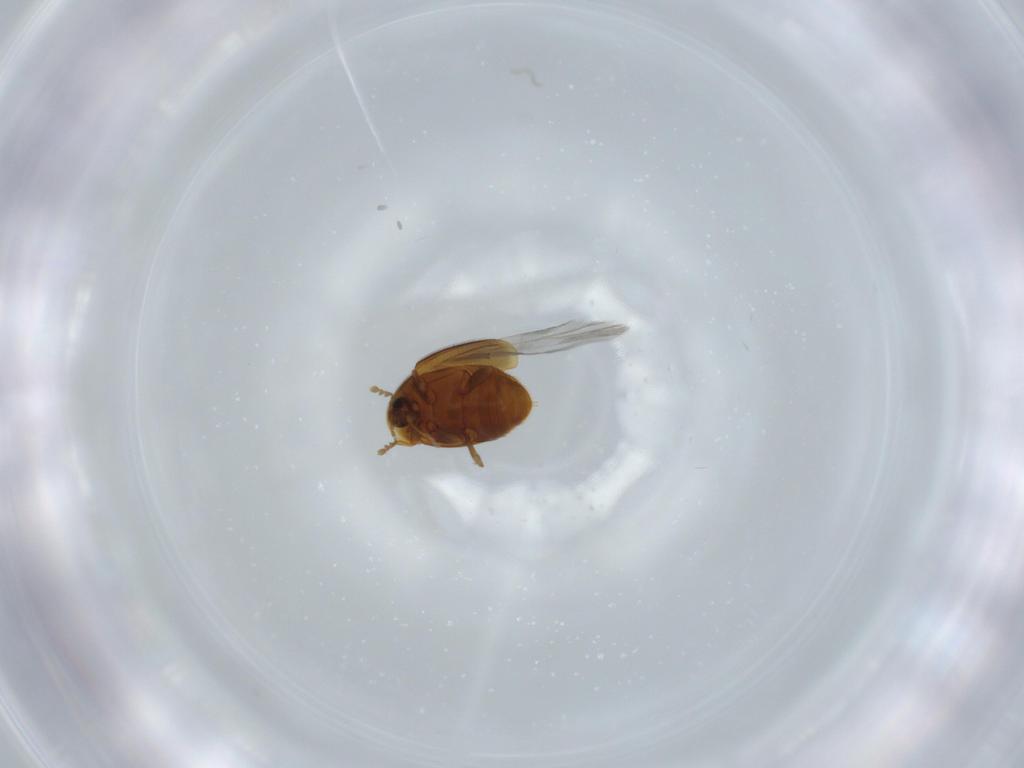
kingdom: Animalia
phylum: Arthropoda
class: Insecta
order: Coleoptera
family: Corylophidae
